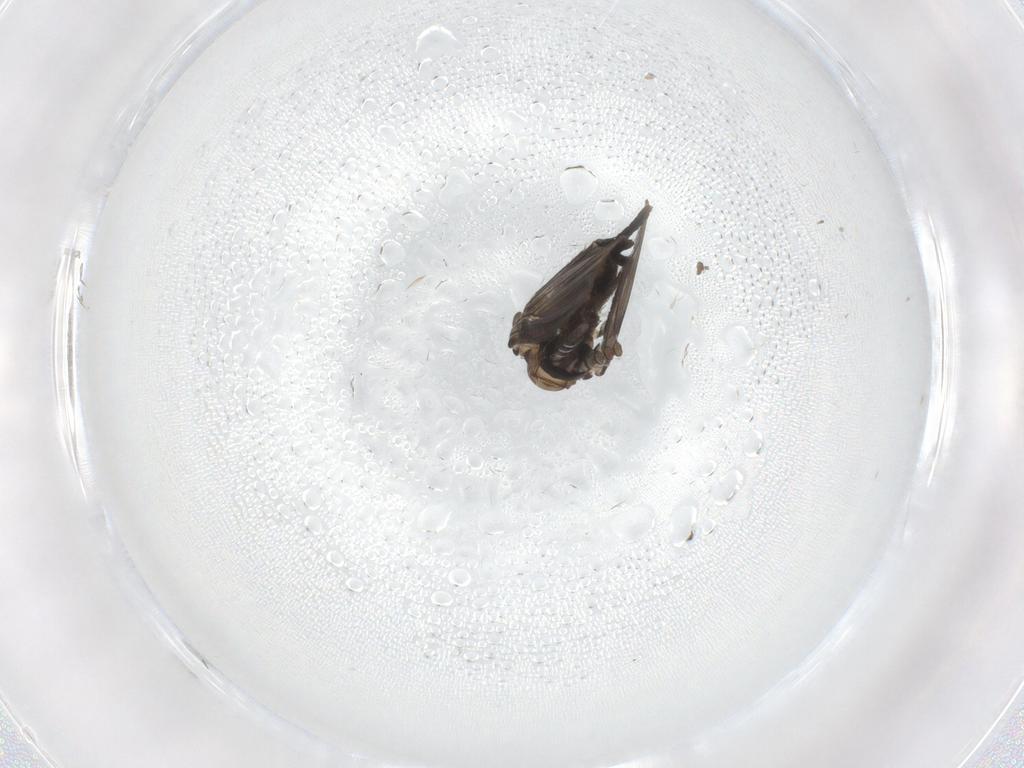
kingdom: Animalia
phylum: Arthropoda
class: Insecta
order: Diptera
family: Psychodidae
